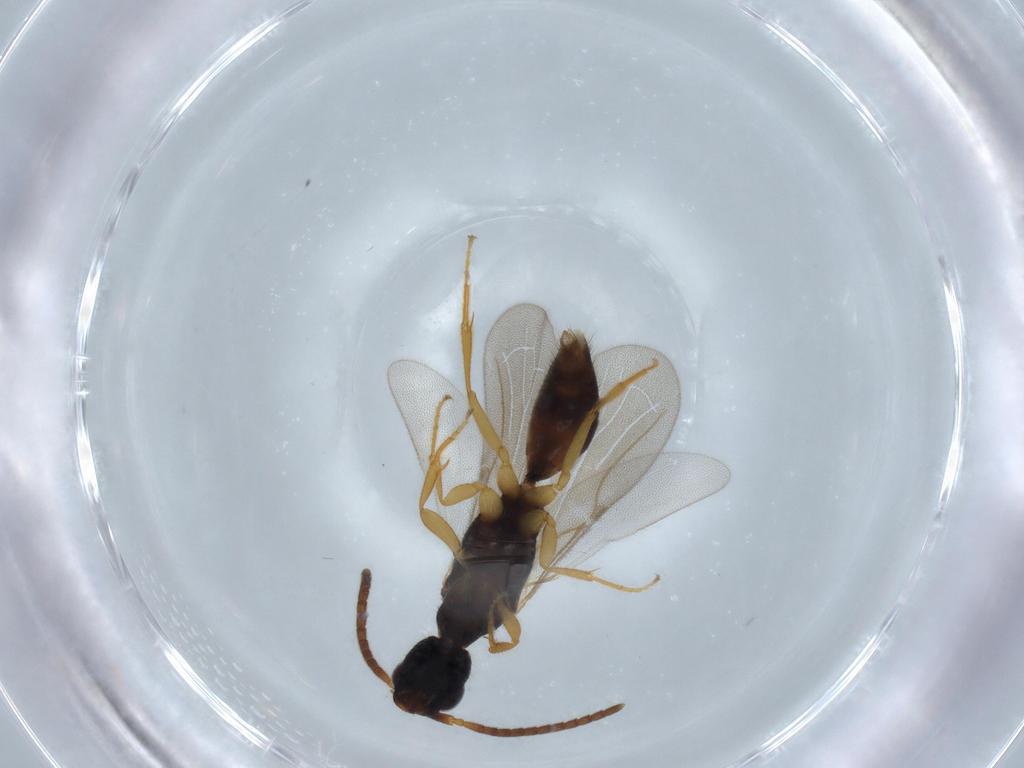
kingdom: Animalia
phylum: Arthropoda
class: Insecta
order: Hymenoptera
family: Bethylidae
